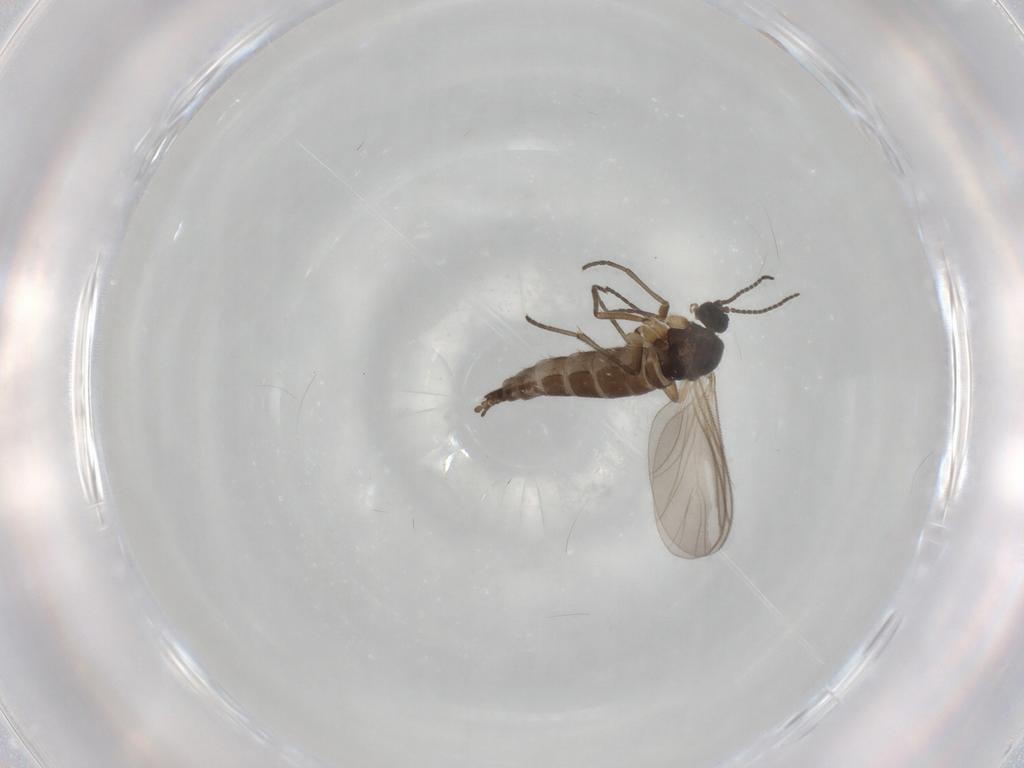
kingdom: Animalia
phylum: Arthropoda
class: Insecta
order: Diptera
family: Sciaridae
